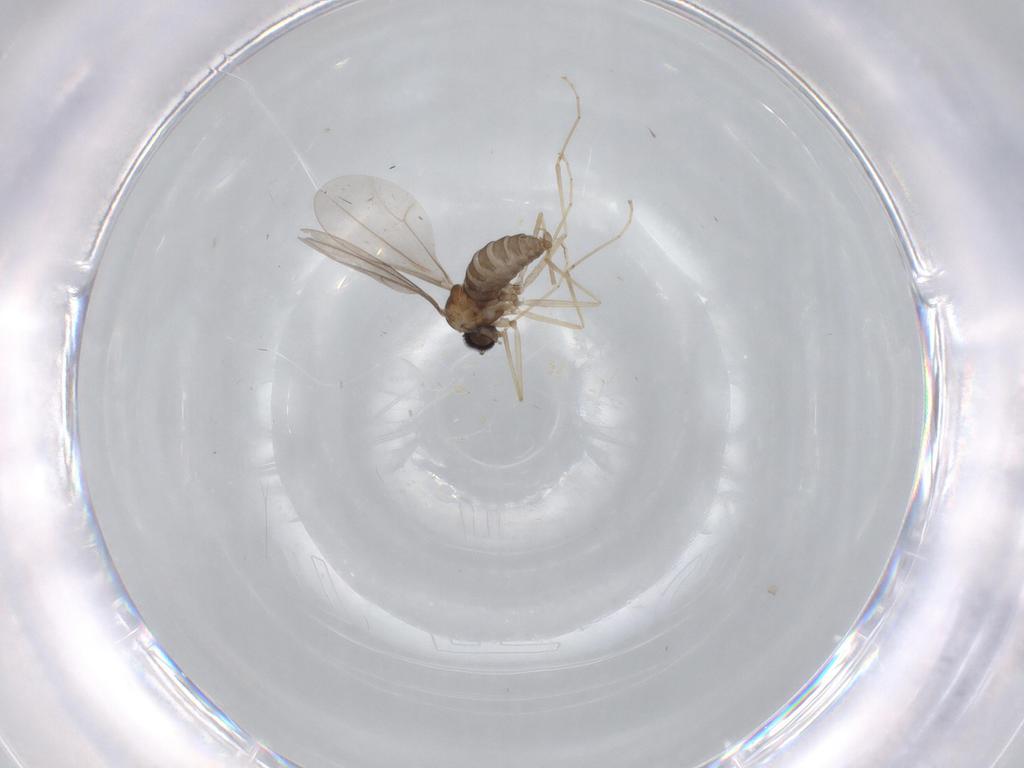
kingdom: Animalia
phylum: Arthropoda
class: Insecta
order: Diptera
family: Cecidomyiidae
